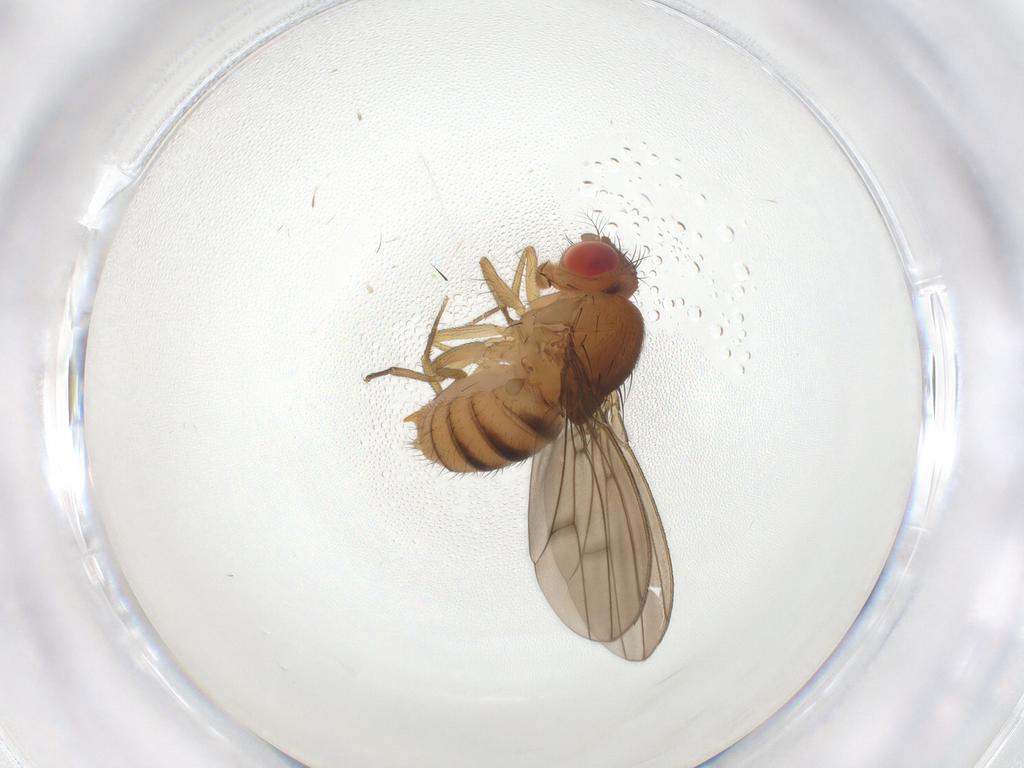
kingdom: Animalia
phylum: Arthropoda
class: Insecta
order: Diptera
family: Drosophilidae
